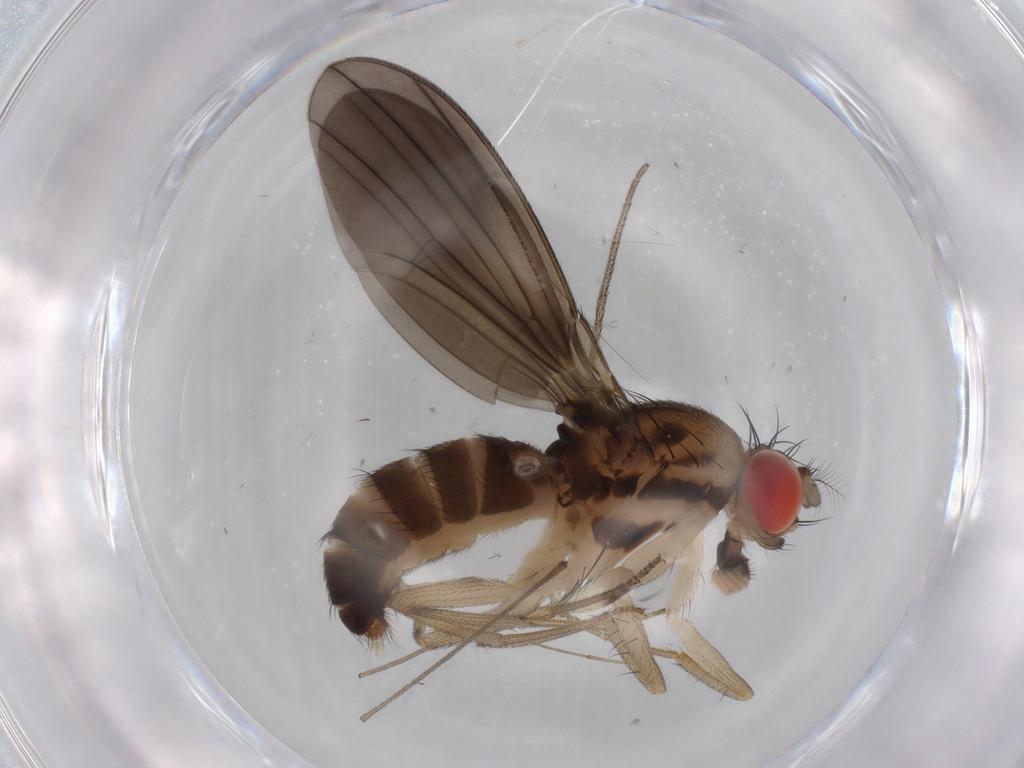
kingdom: Animalia
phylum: Arthropoda
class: Insecta
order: Diptera
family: Drosophilidae
